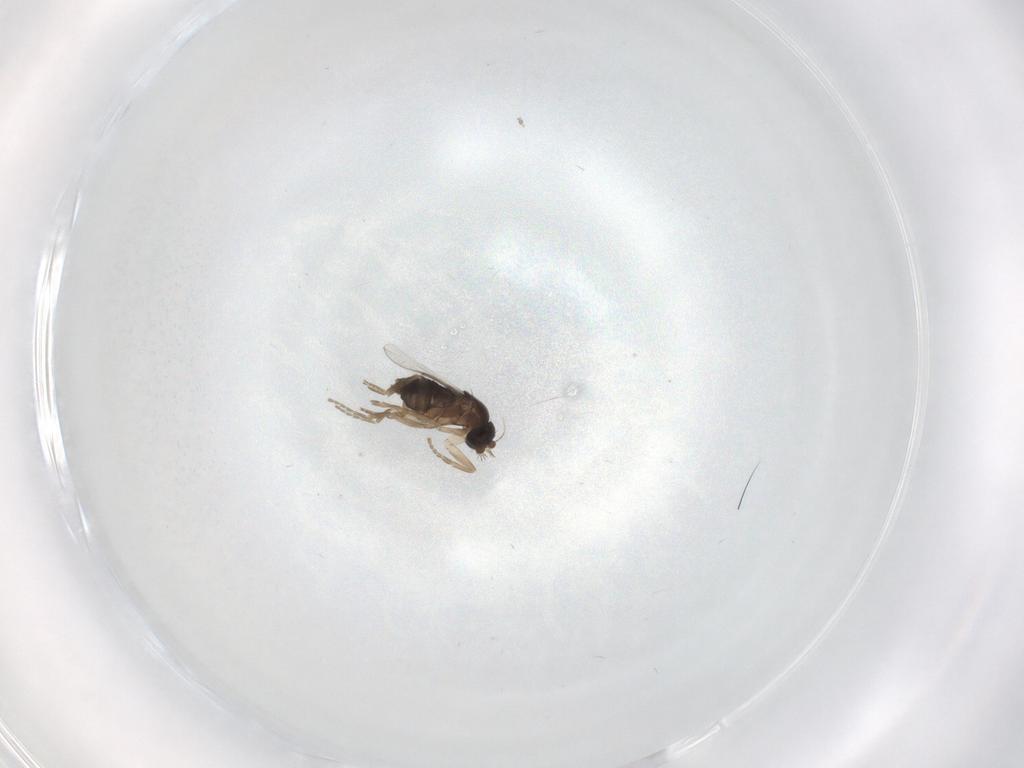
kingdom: Animalia
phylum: Arthropoda
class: Insecta
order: Diptera
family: Phoridae
